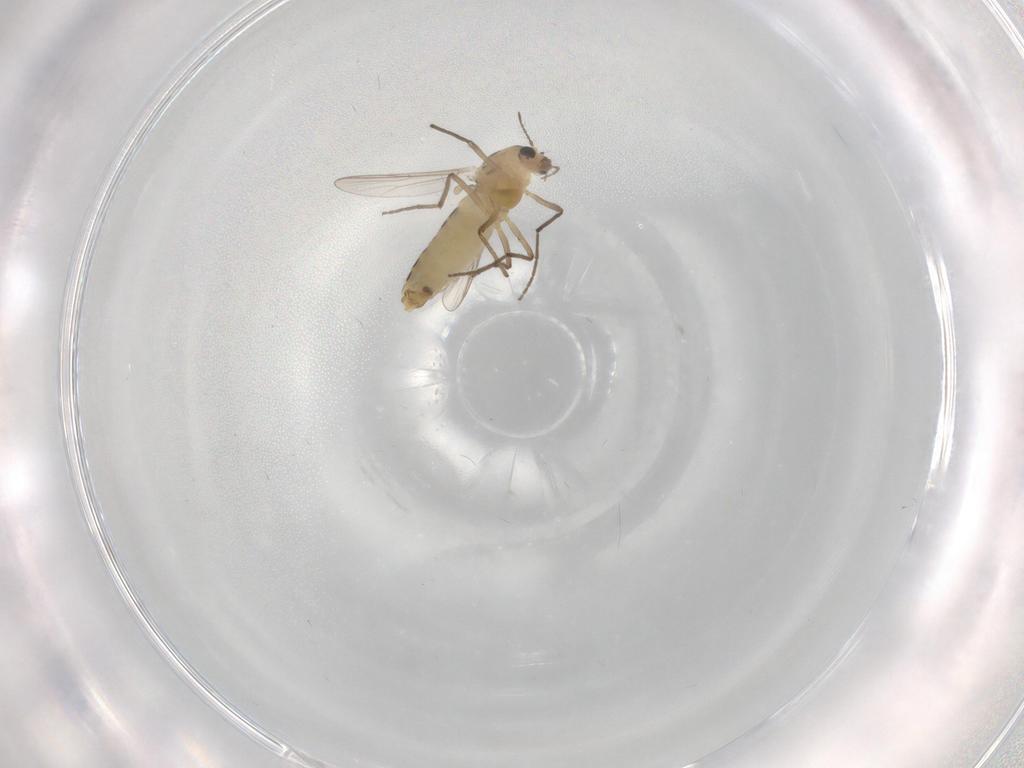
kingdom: Animalia
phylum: Arthropoda
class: Insecta
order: Diptera
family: Chironomidae
